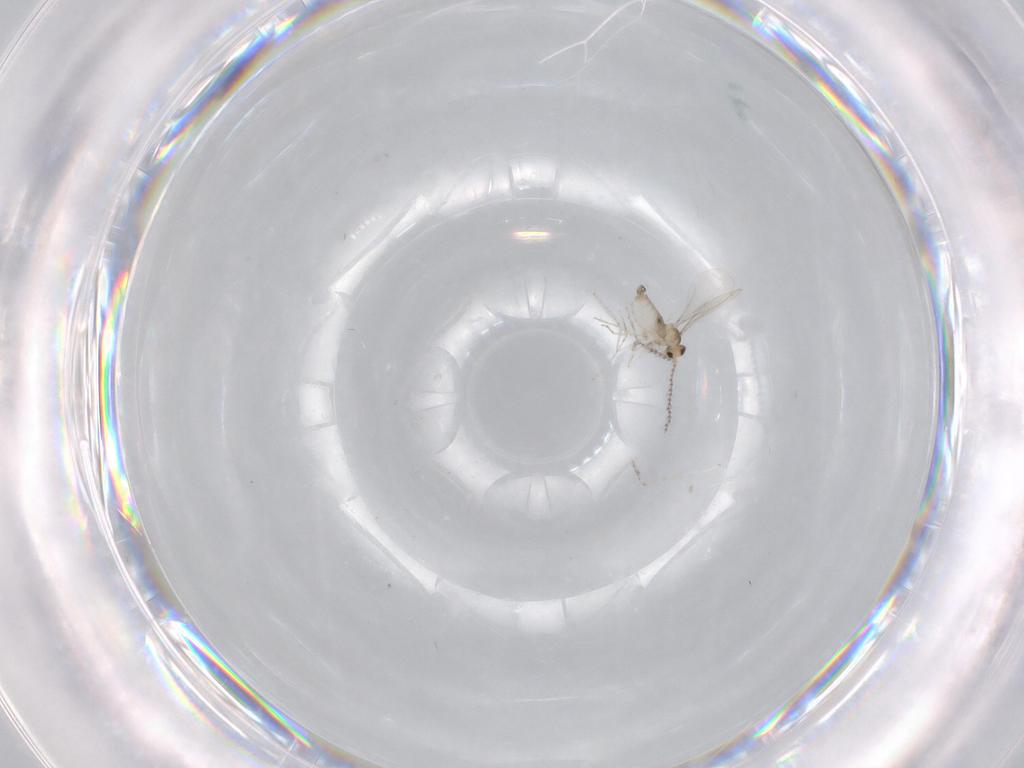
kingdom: Animalia
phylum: Arthropoda
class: Insecta
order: Diptera
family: Cecidomyiidae
